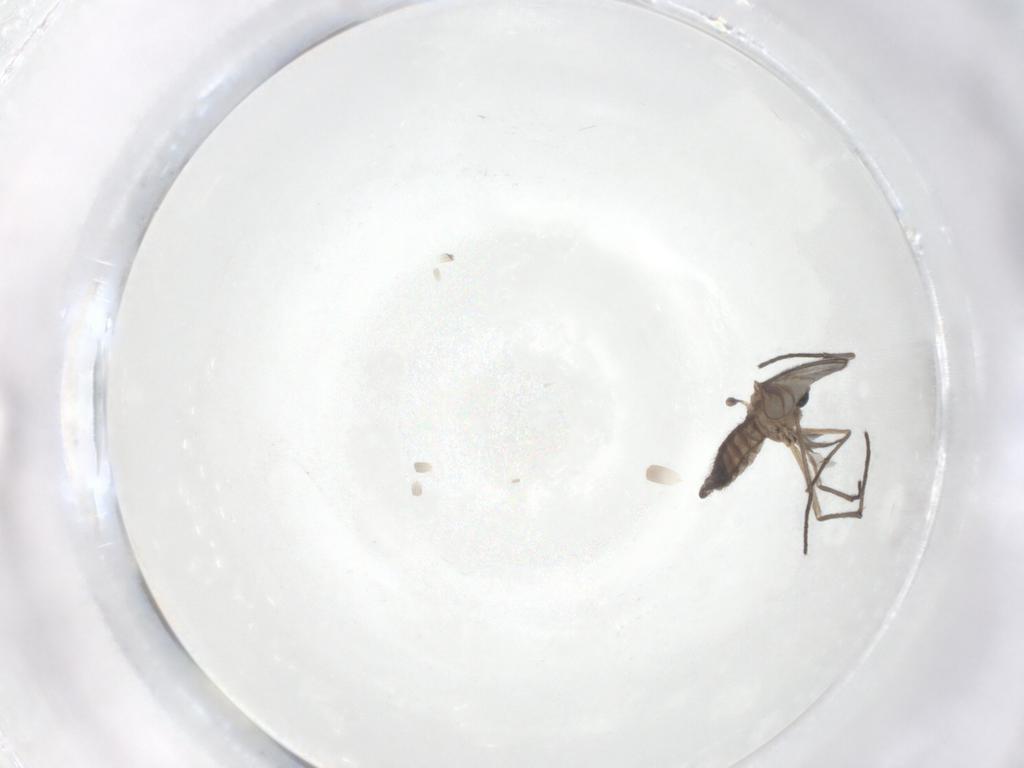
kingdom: Animalia
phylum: Arthropoda
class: Insecta
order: Diptera
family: Sciaridae
